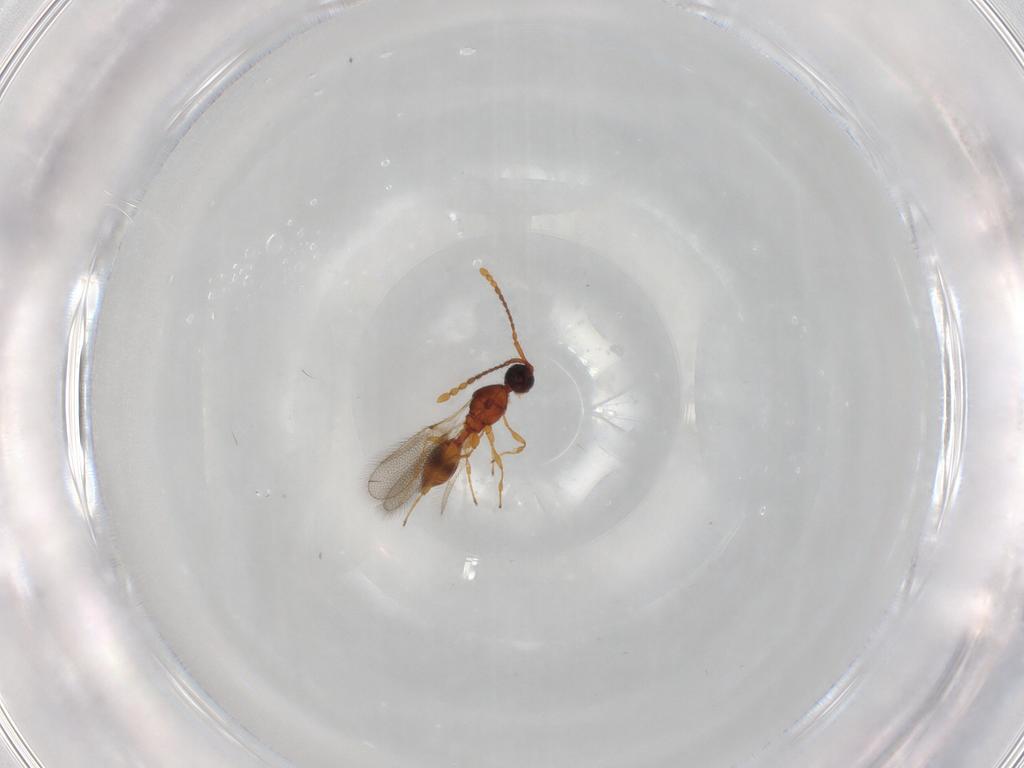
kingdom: Animalia
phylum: Arthropoda
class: Insecta
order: Hymenoptera
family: Diapriidae
